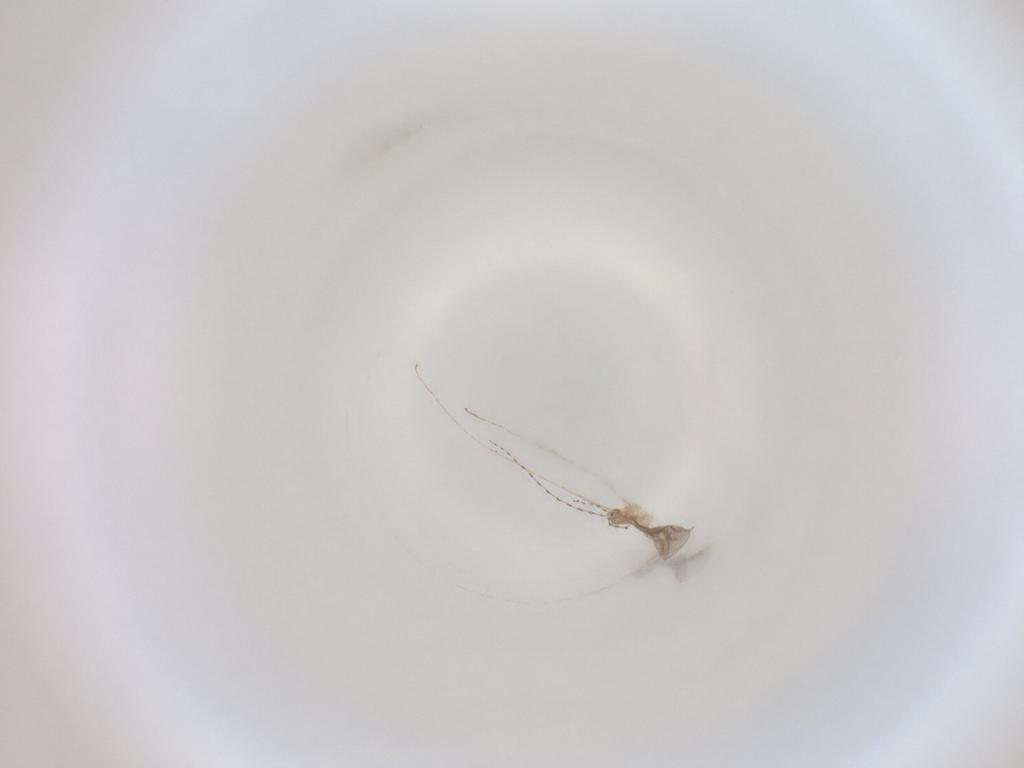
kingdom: Animalia
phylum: Arthropoda
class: Insecta
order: Diptera
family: Cecidomyiidae
